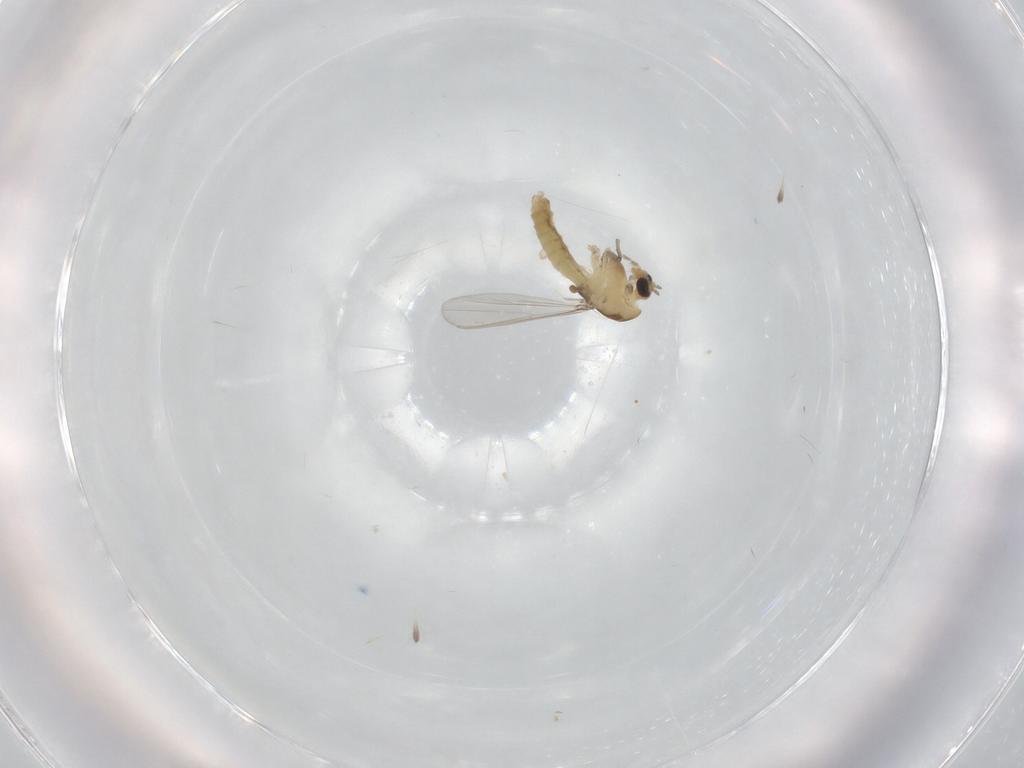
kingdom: Animalia
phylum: Arthropoda
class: Insecta
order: Diptera
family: Chironomidae
